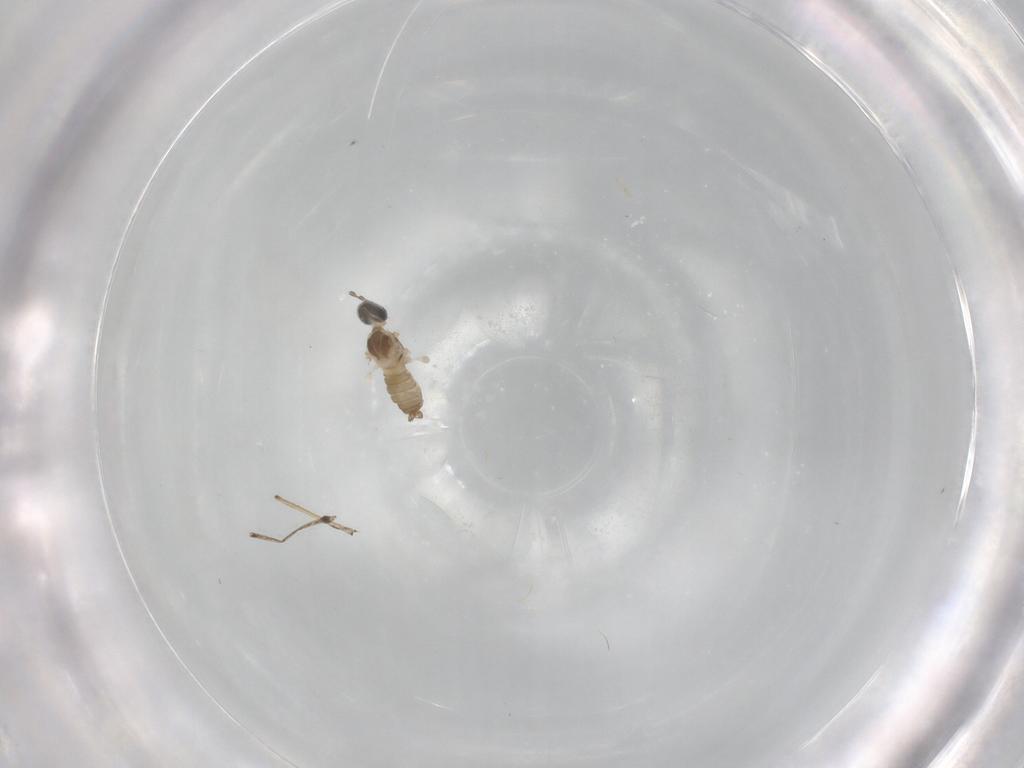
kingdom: Animalia
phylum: Arthropoda
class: Insecta
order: Diptera
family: Cecidomyiidae
